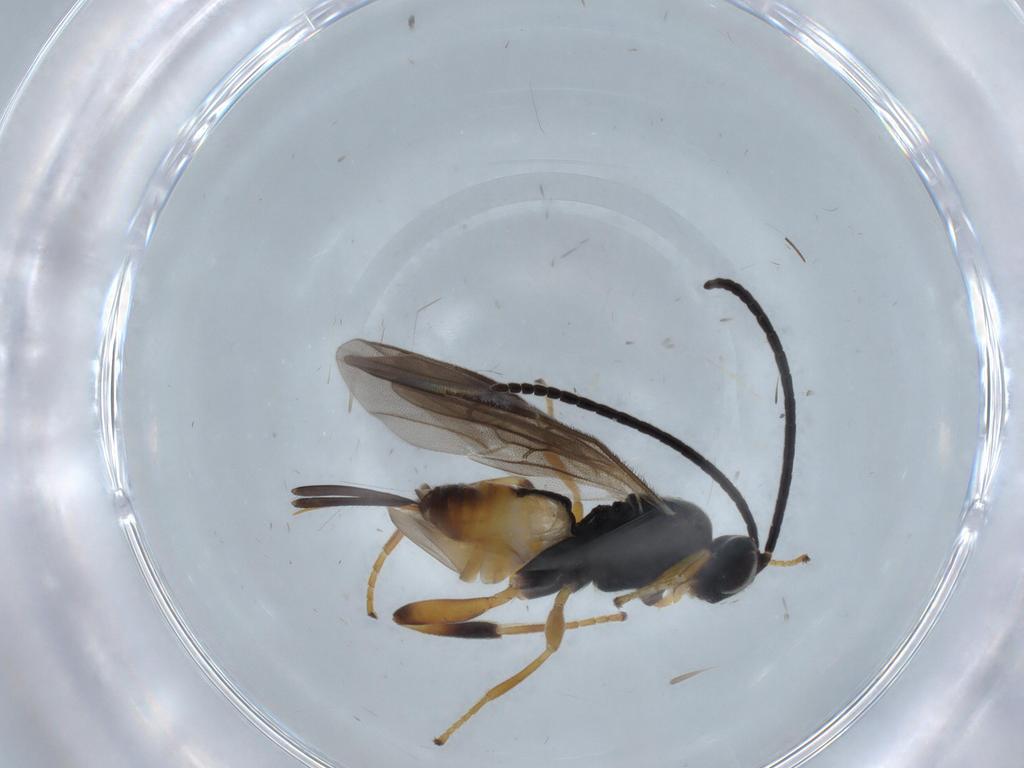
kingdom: Animalia
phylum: Arthropoda
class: Insecta
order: Hymenoptera
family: Braconidae
